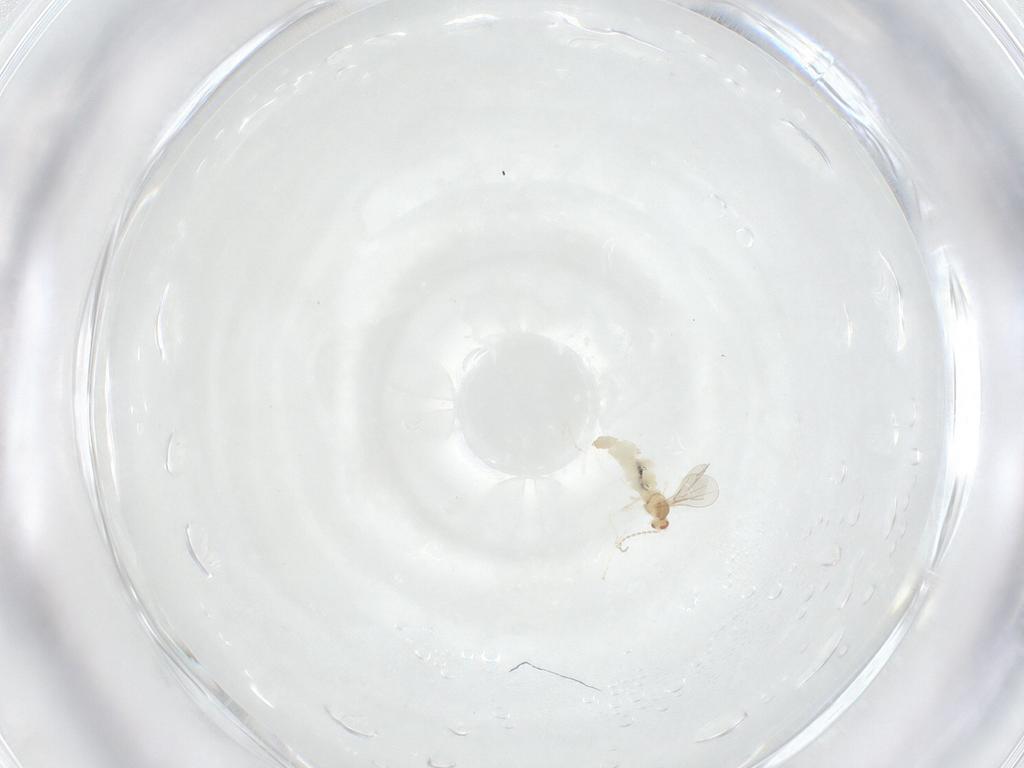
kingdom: Animalia
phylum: Arthropoda
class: Insecta
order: Diptera
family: Cecidomyiidae
